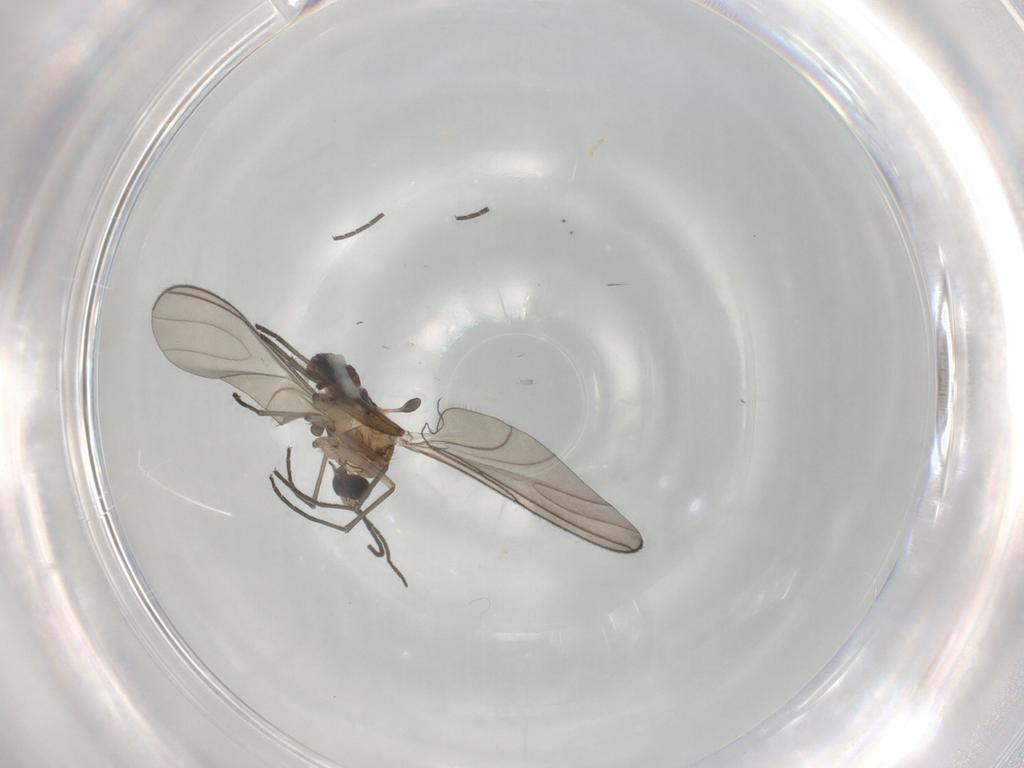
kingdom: Animalia
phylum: Arthropoda
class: Insecta
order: Diptera
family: Sciaridae
